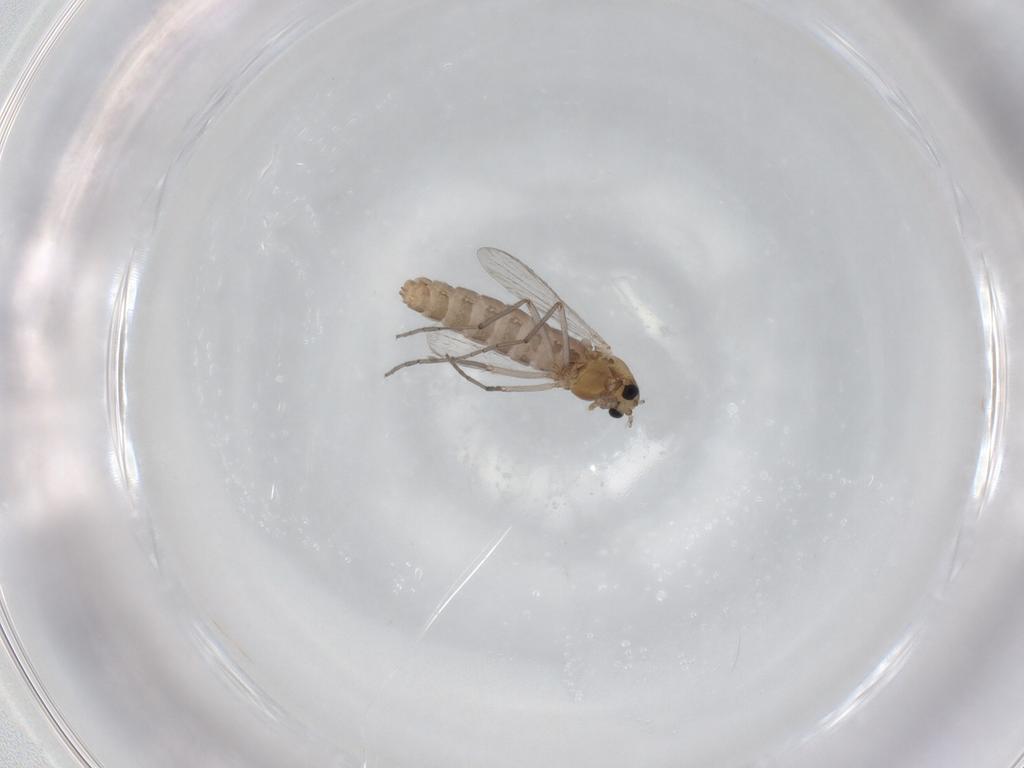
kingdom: Animalia
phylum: Arthropoda
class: Insecta
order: Diptera
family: Chironomidae
